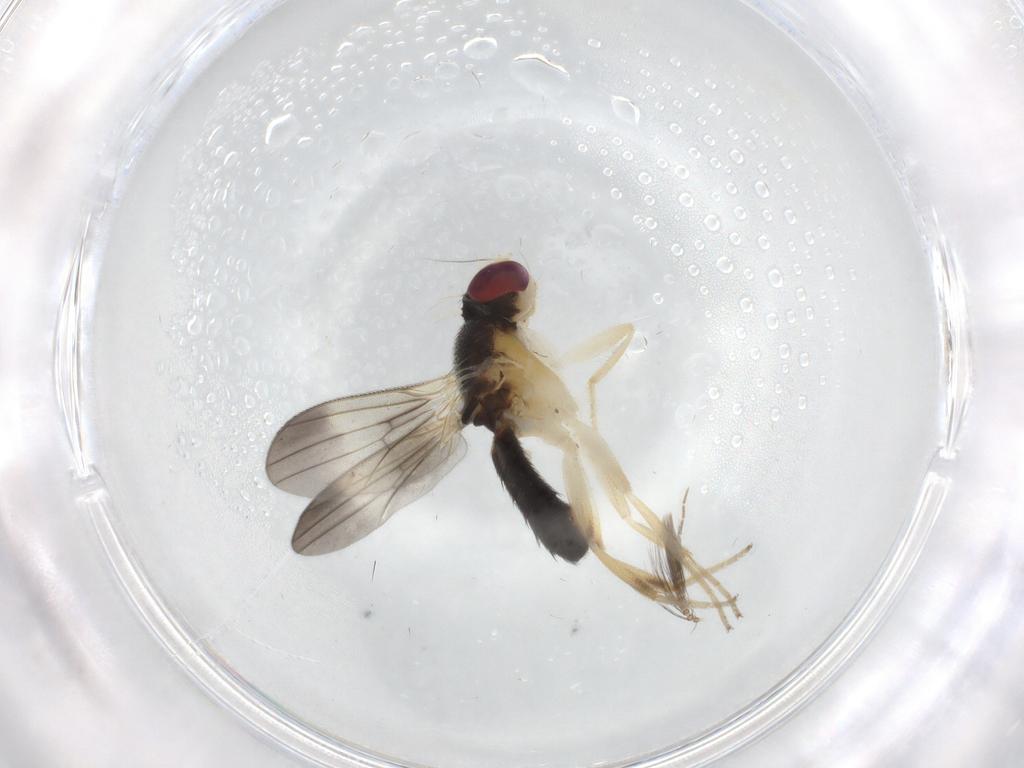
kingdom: Animalia
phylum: Arthropoda
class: Insecta
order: Diptera
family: Clusiidae
